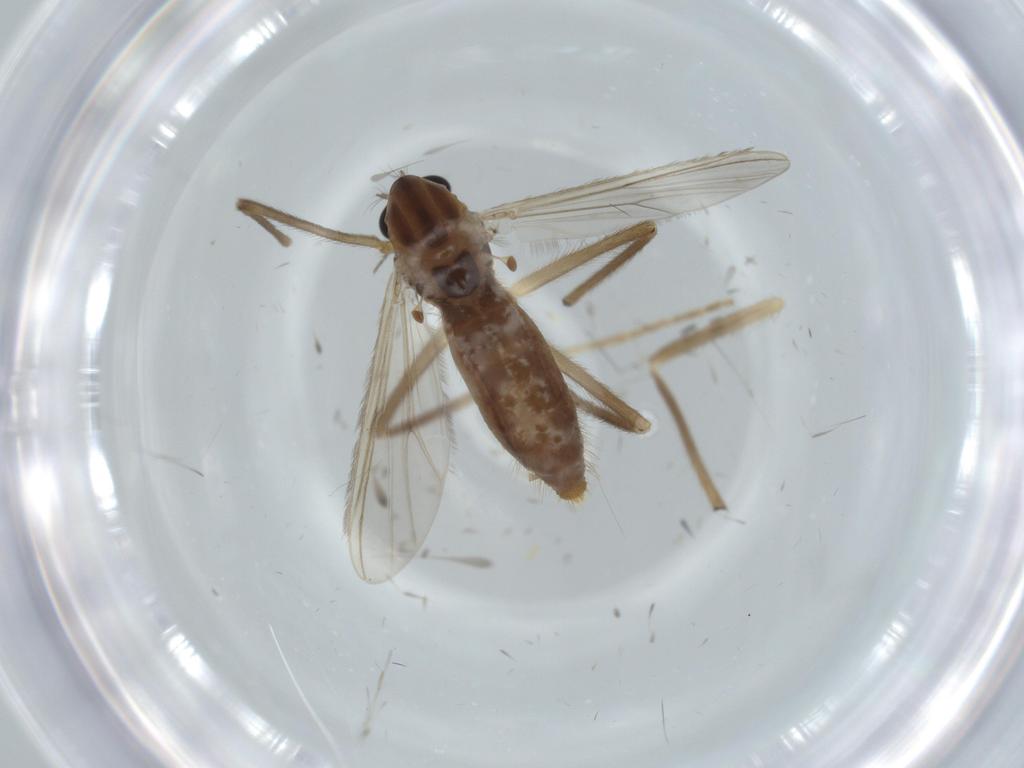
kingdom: Animalia
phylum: Arthropoda
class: Insecta
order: Diptera
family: Chironomidae
